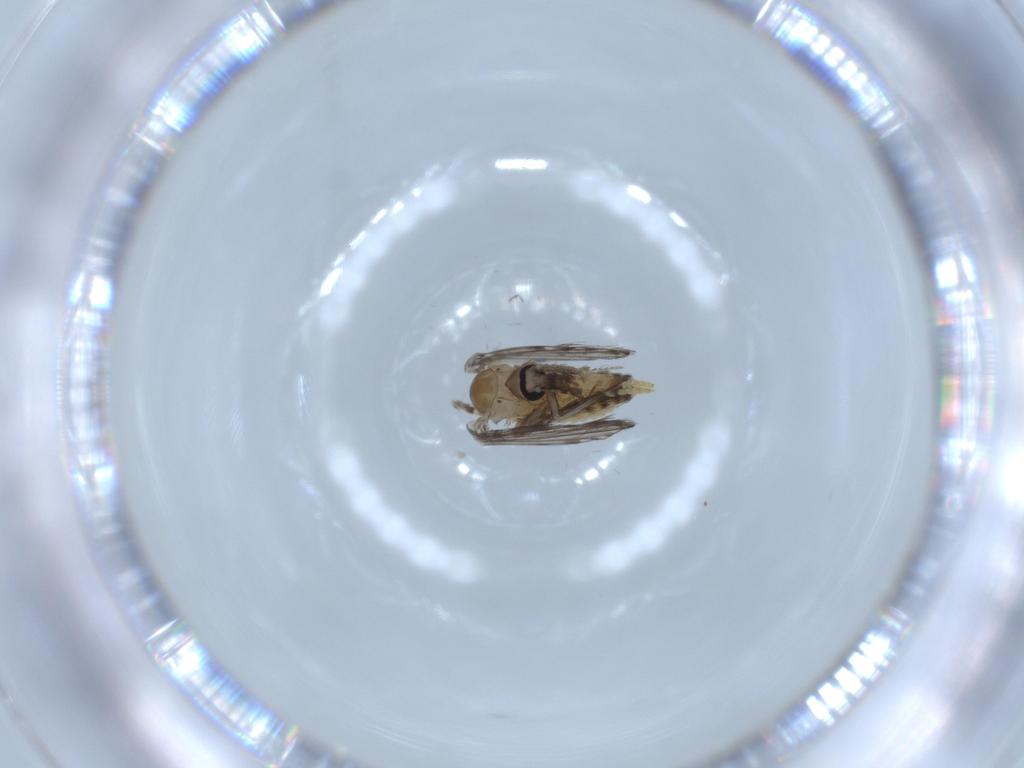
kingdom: Animalia
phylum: Arthropoda
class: Insecta
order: Diptera
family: Psychodidae
